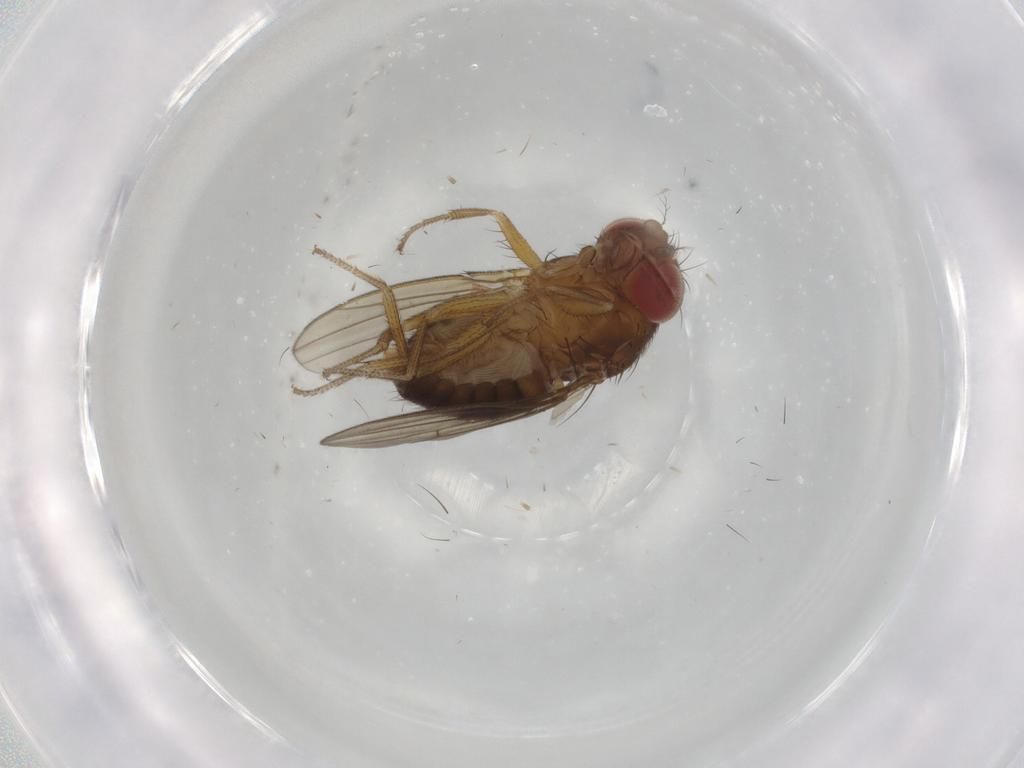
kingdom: Animalia
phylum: Arthropoda
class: Insecta
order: Diptera
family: Drosophilidae
